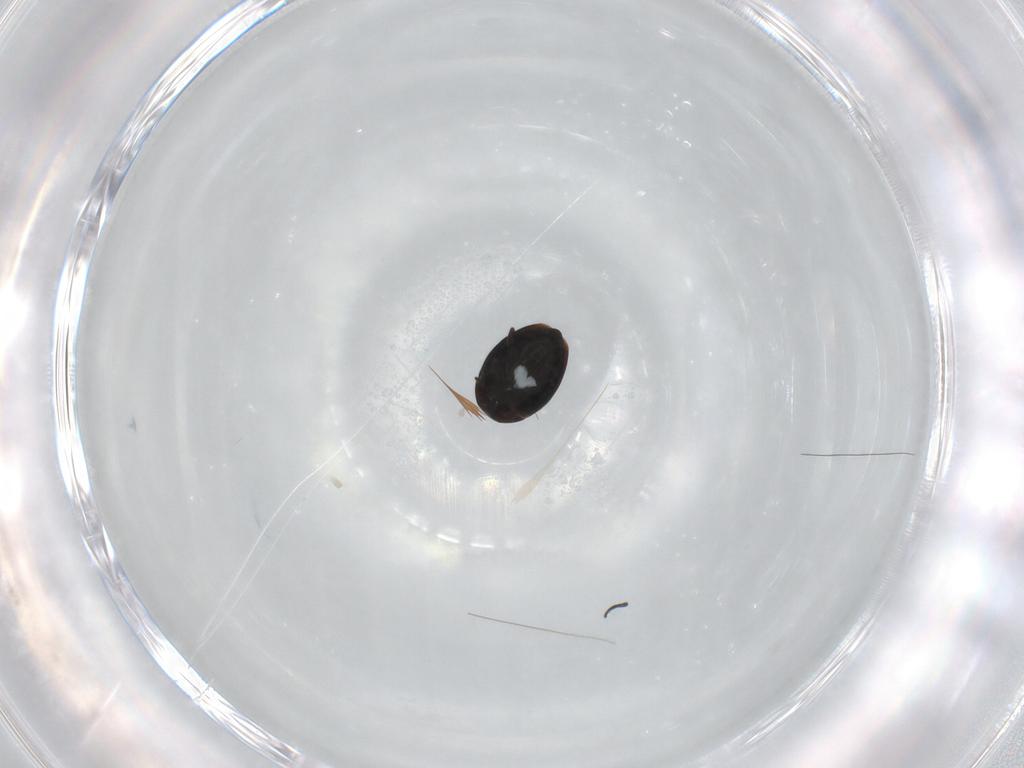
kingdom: Animalia
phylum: Arthropoda
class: Insecta
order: Coleoptera
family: Corylophidae
